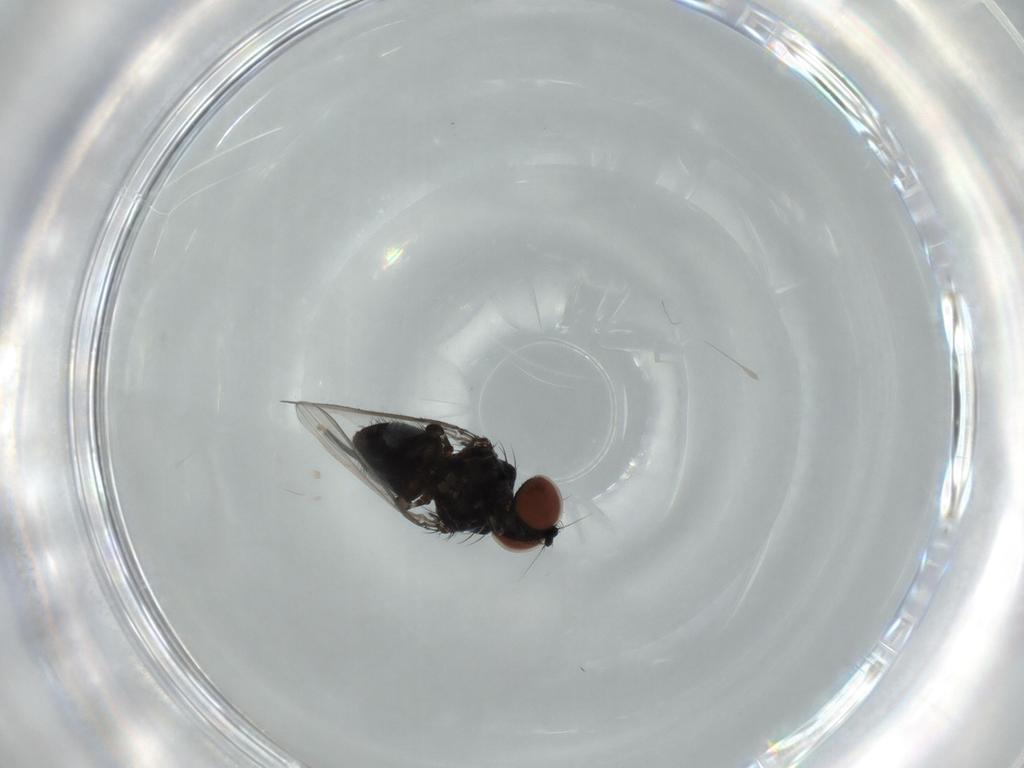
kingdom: Animalia
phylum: Arthropoda
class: Insecta
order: Diptera
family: Milichiidae
